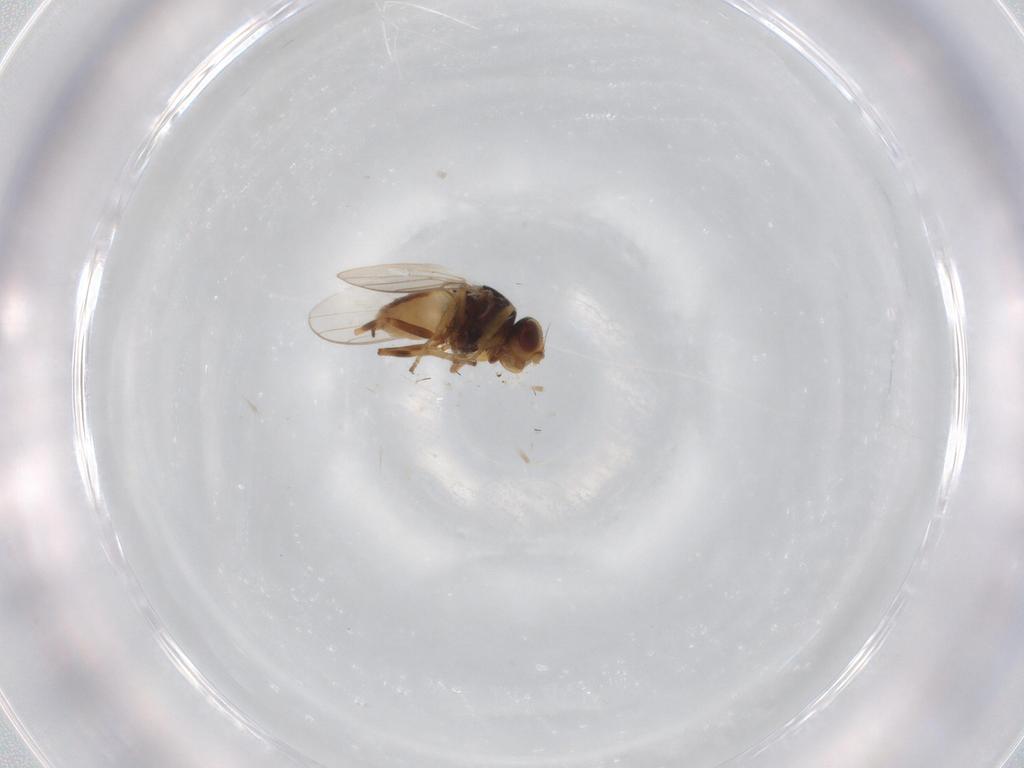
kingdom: Animalia
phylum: Arthropoda
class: Insecta
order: Diptera
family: Chloropidae
